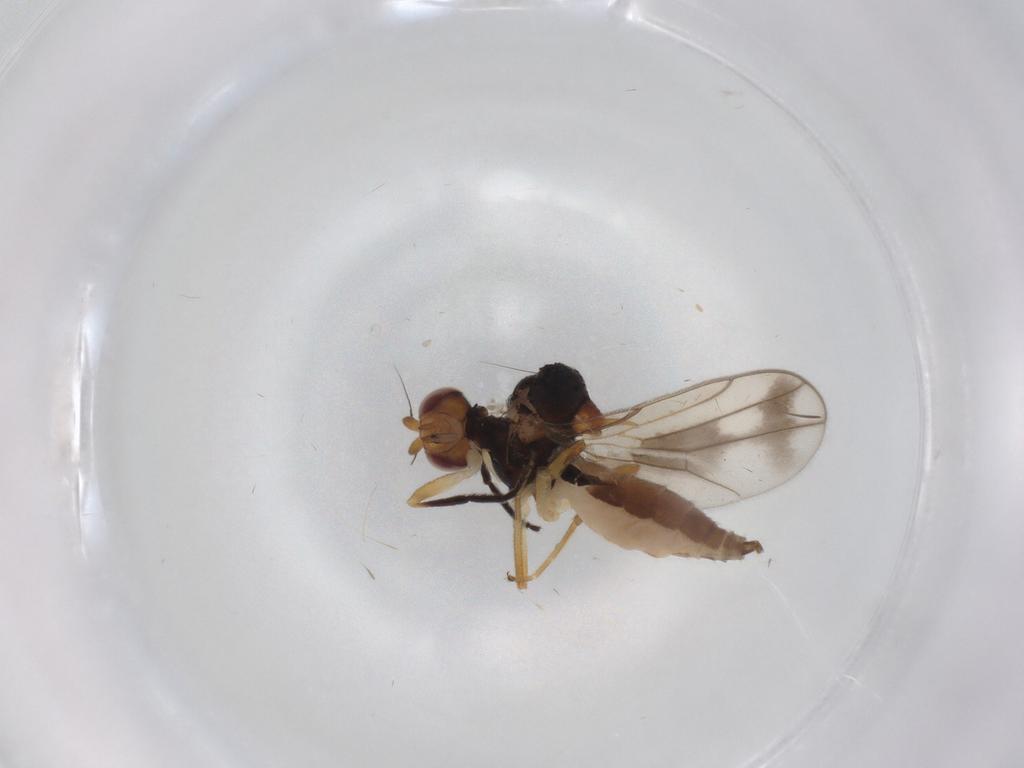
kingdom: Animalia
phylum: Arthropoda
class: Insecta
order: Diptera
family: Chloropidae
